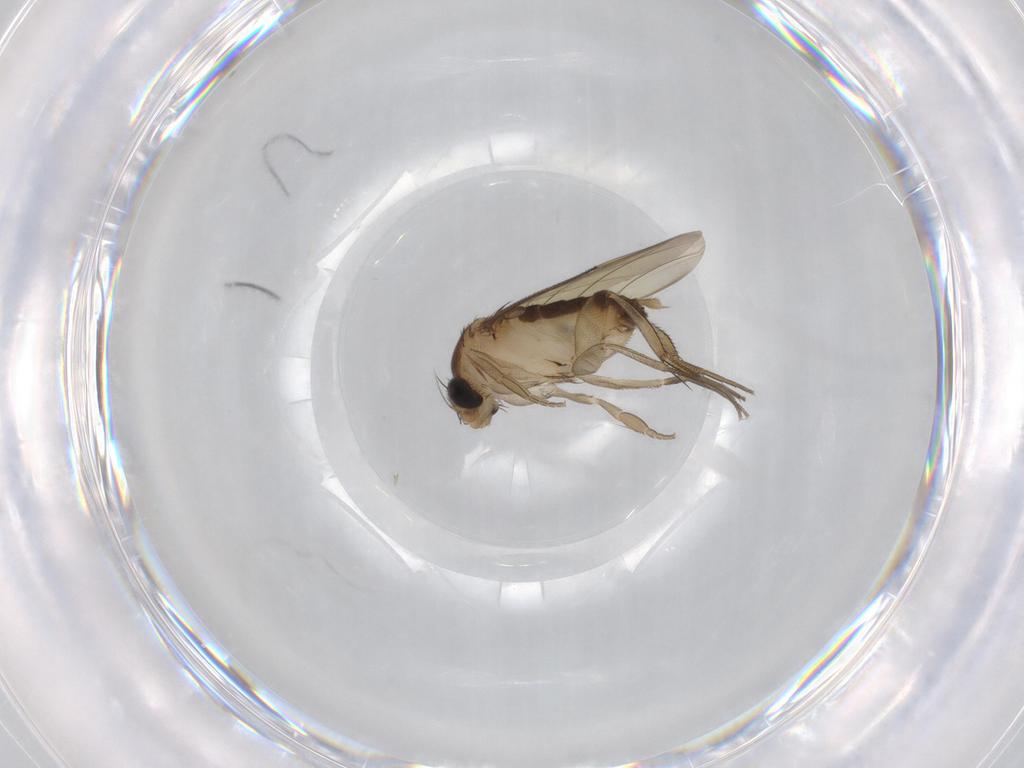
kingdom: Animalia
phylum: Arthropoda
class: Insecta
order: Diptera
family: Phoridae
